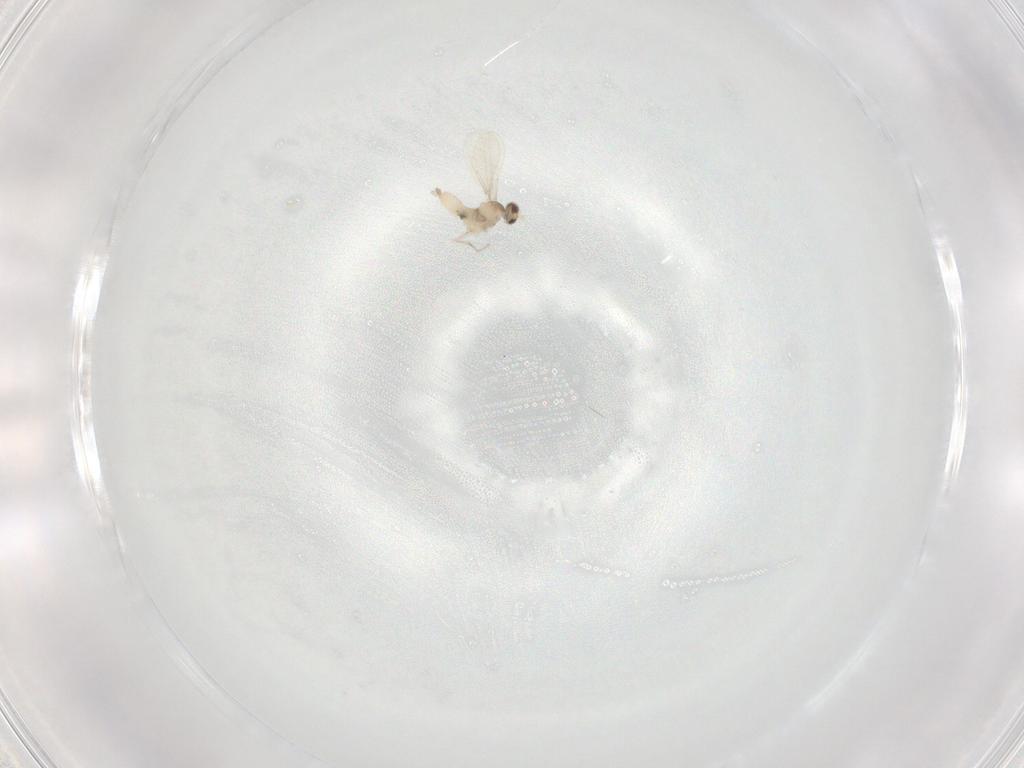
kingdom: Animalia
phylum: Arthropoda
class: Insecta
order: Diptera
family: Cecidomyiidae
